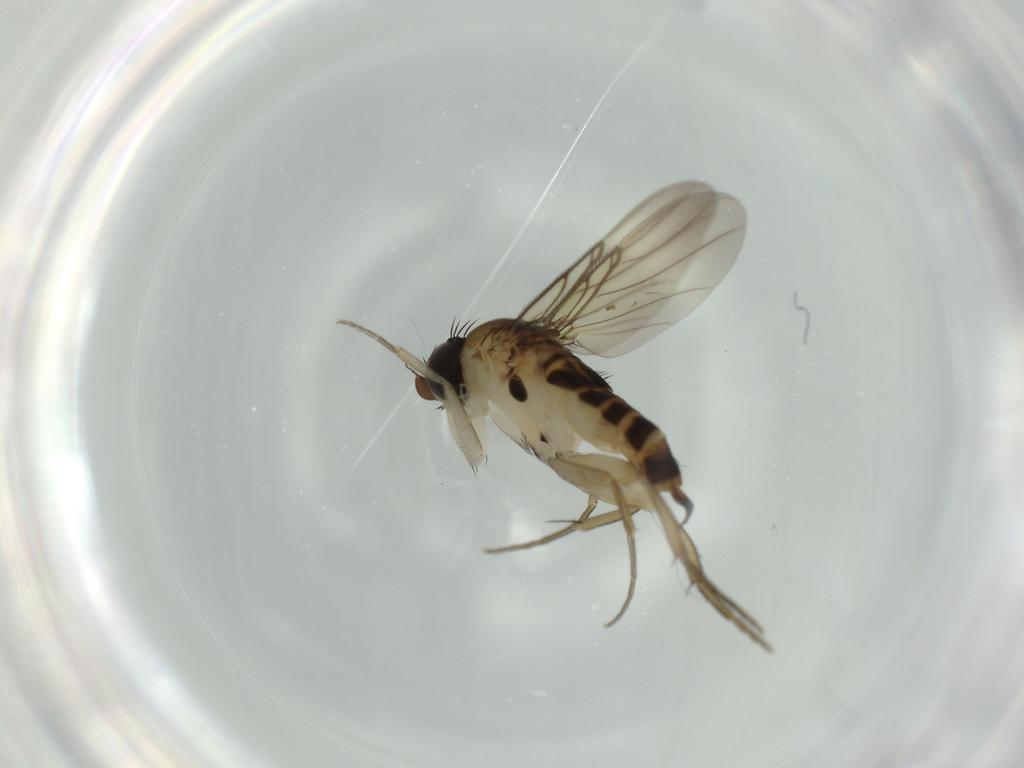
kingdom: Animalia
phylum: Arthropoda
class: Insecta
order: Diptera
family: Phoridae
